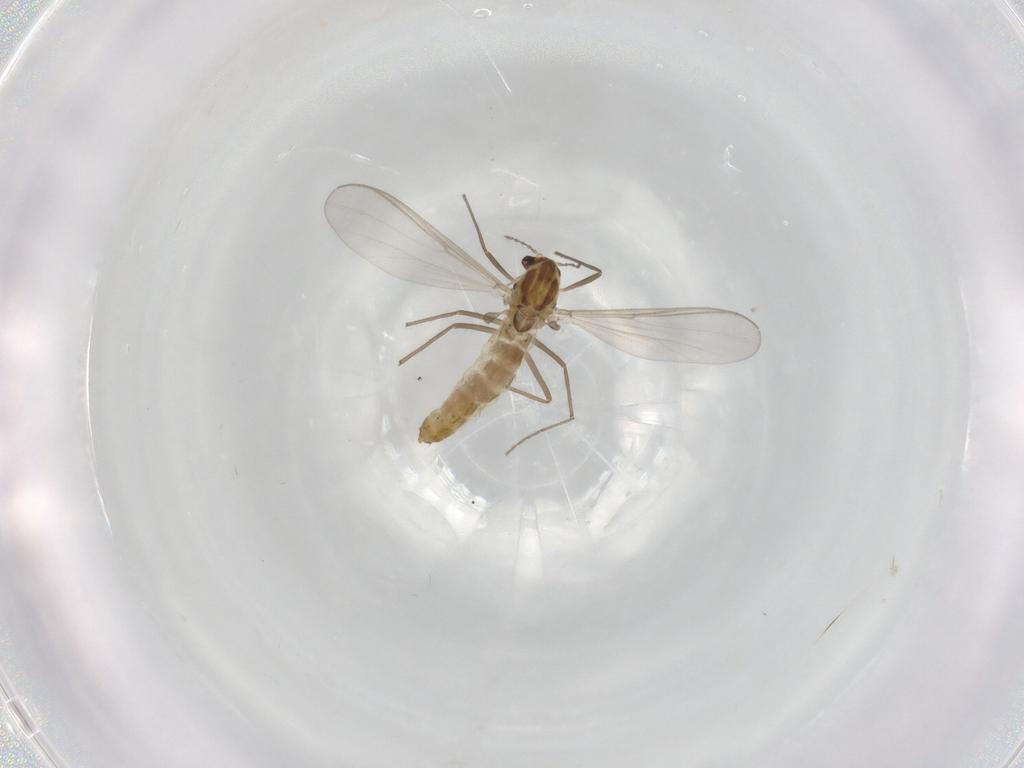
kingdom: Animalia
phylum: Arthropoda
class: Insecta
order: Diptera
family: Chironomidae
